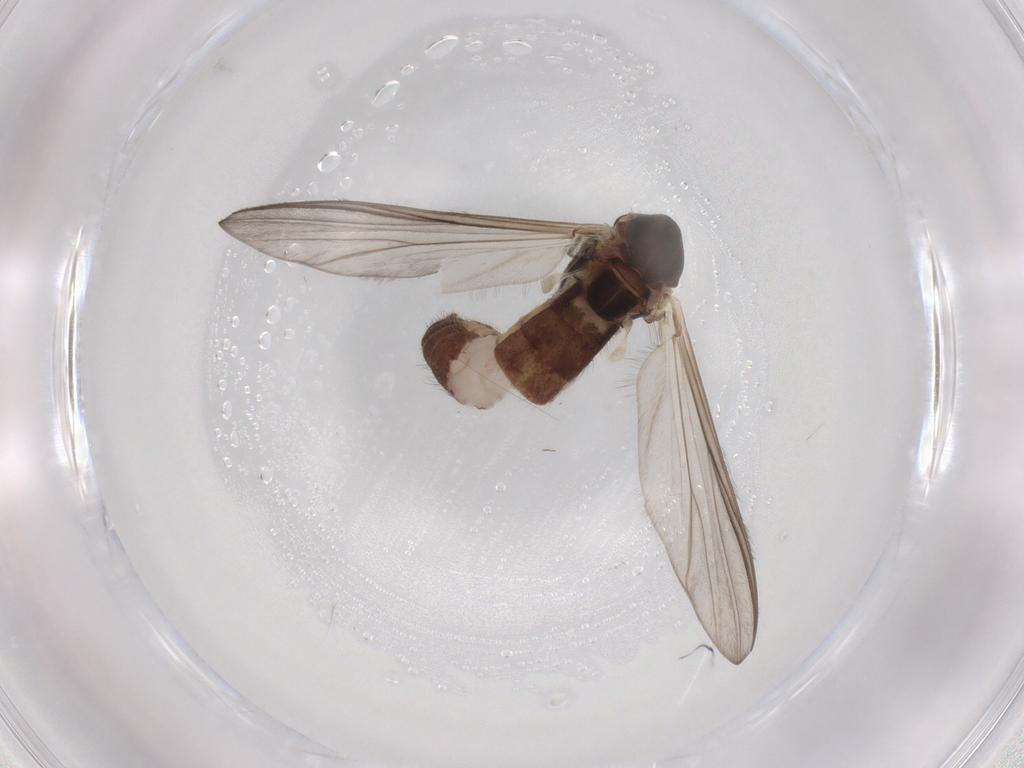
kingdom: Animalia
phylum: Arthropoda
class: Insecta
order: Diptera
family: Chironomidae
